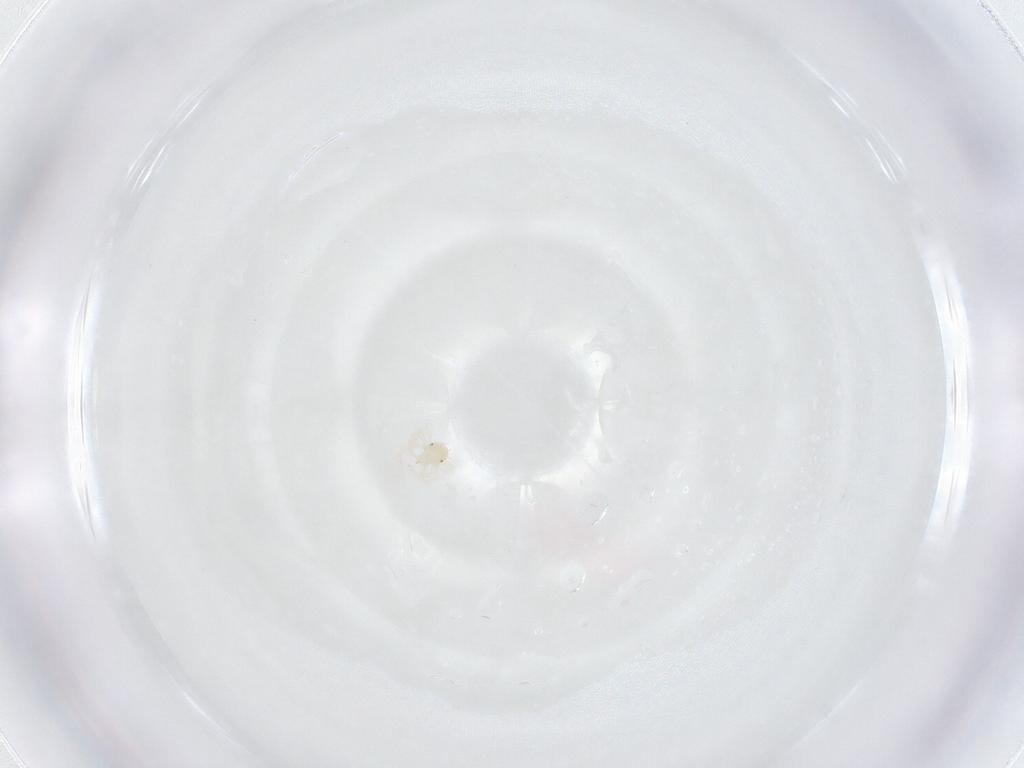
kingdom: Animalia
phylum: Arthropoda
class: Arachnida
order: Trombidiformes
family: Anystidae
